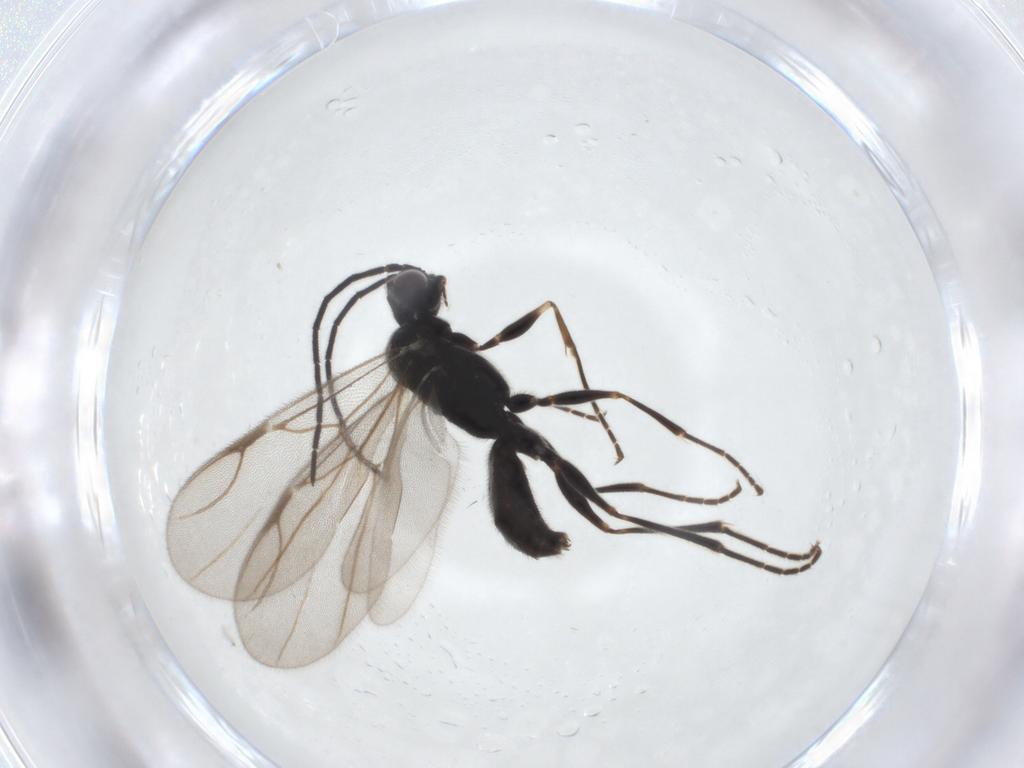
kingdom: Animalia
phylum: Arthropoda
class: Insecta
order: Hymenoptera
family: Dryinidae
